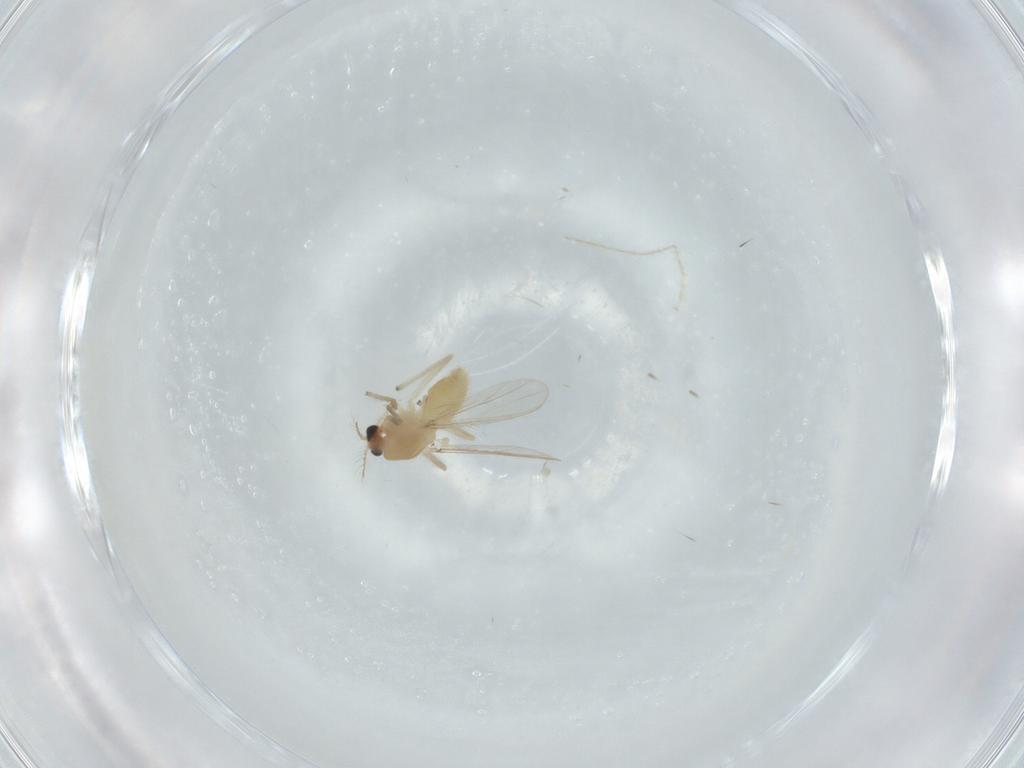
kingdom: Animalia
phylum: Arthropoda
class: Insecta
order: Diptera
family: Chironomidae
